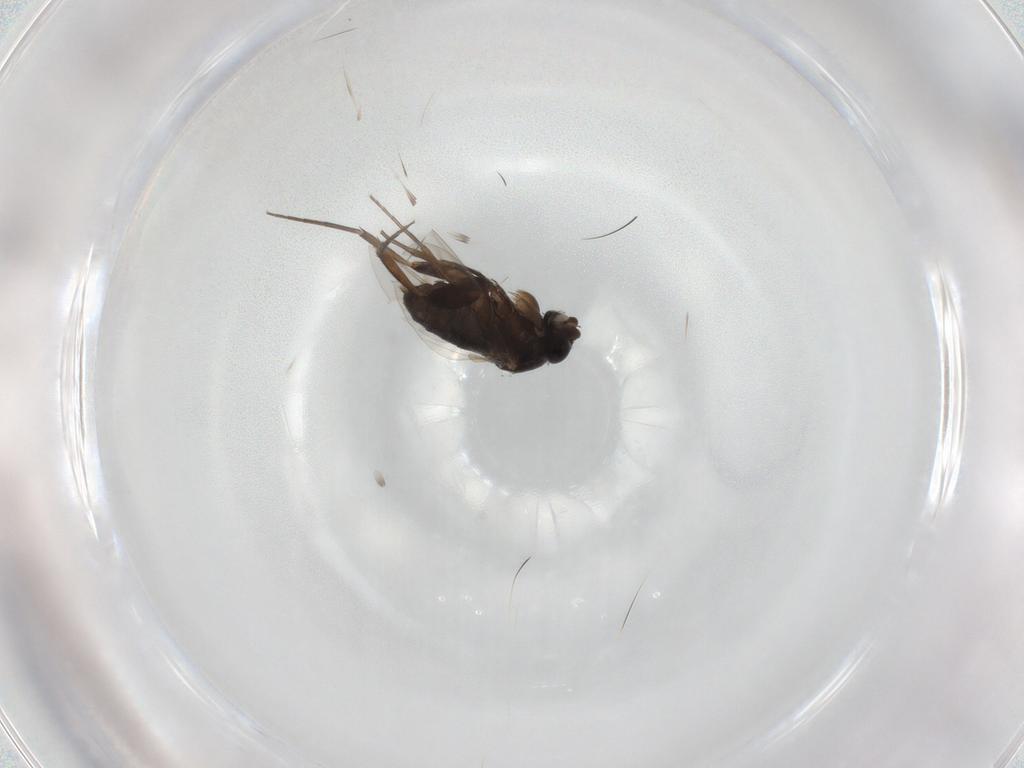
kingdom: Animalia
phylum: Arthropoda
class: Insecta
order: Diptera
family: Phoridae
